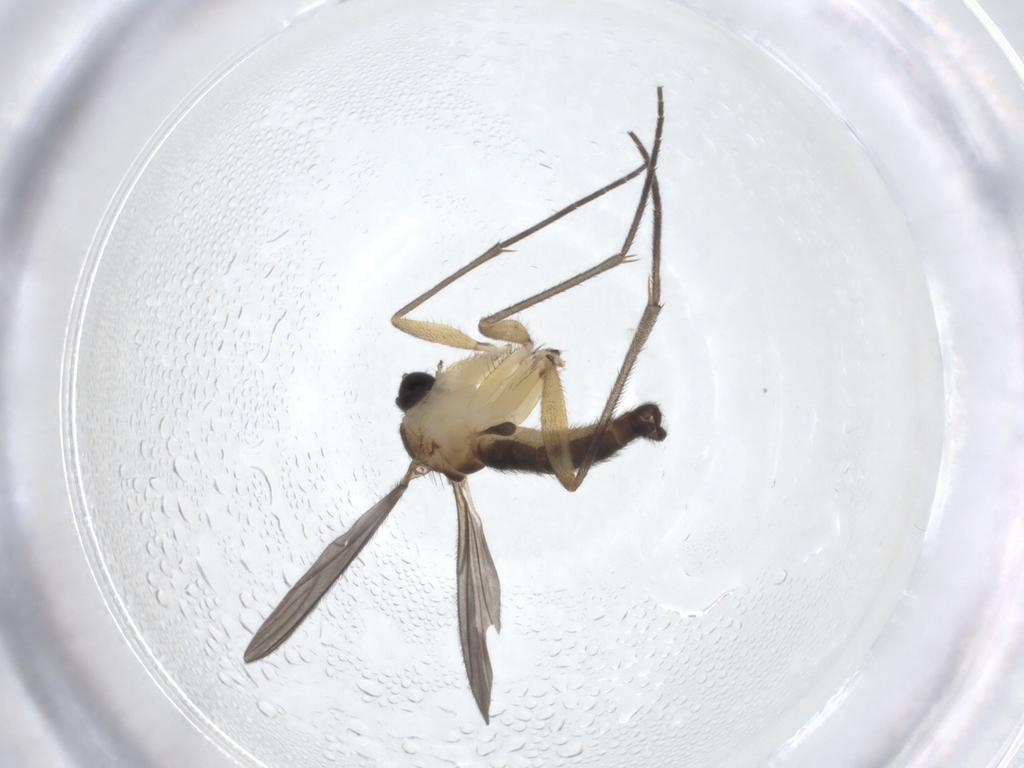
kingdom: Animalia
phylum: Arthropoda
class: Insecta
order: Diptera
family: Sciaridae
